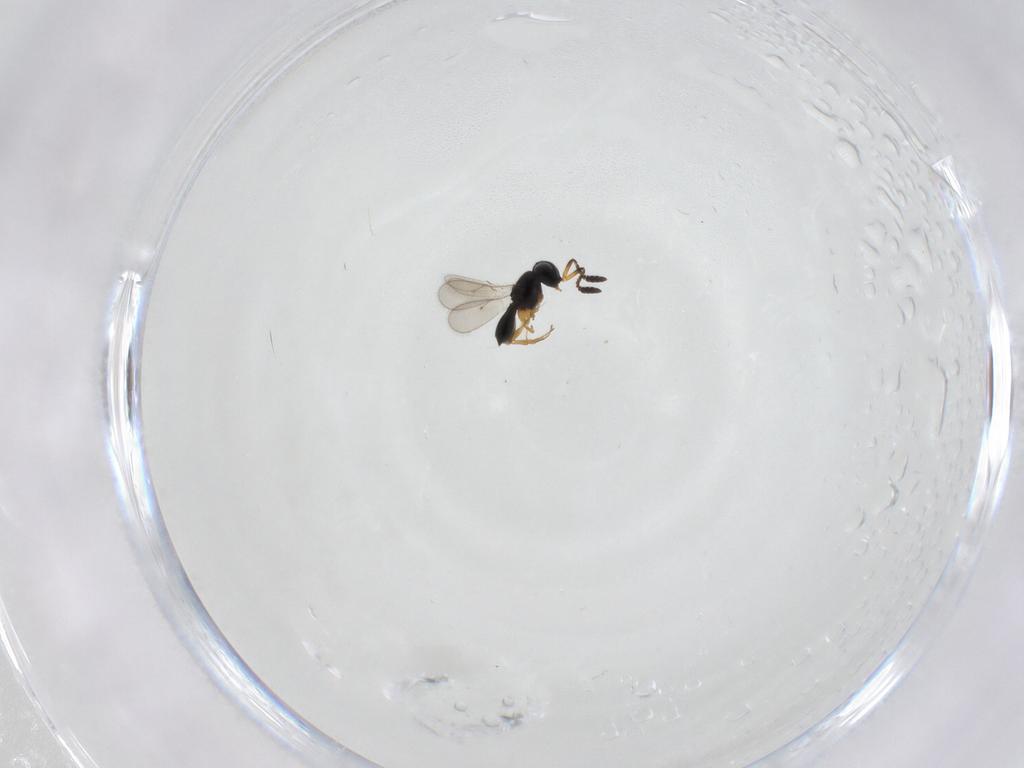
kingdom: Animalia
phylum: Arthropoda
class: Insecta
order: Hymenoptera
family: Scelionidae
